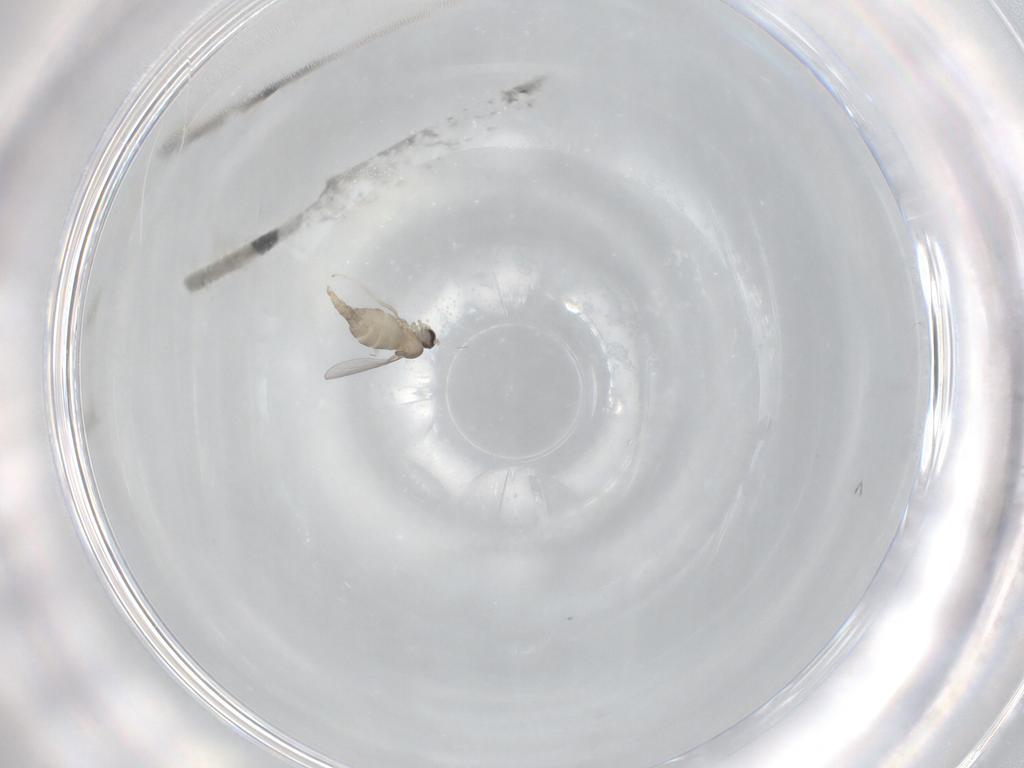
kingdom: Animalia
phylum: Arthropoda
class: Insecta
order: Diptera
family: Cecidomyiidae
